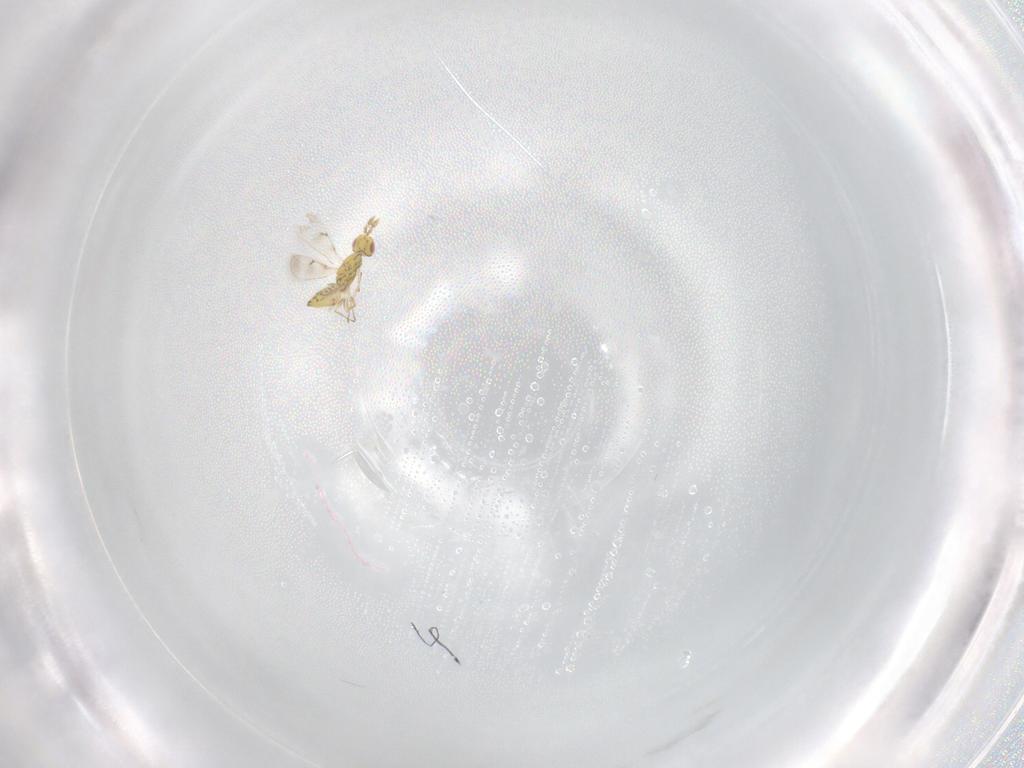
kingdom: Animalia
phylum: Arthropoda
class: Insecta
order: Hymenoptera
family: Eulophidae
